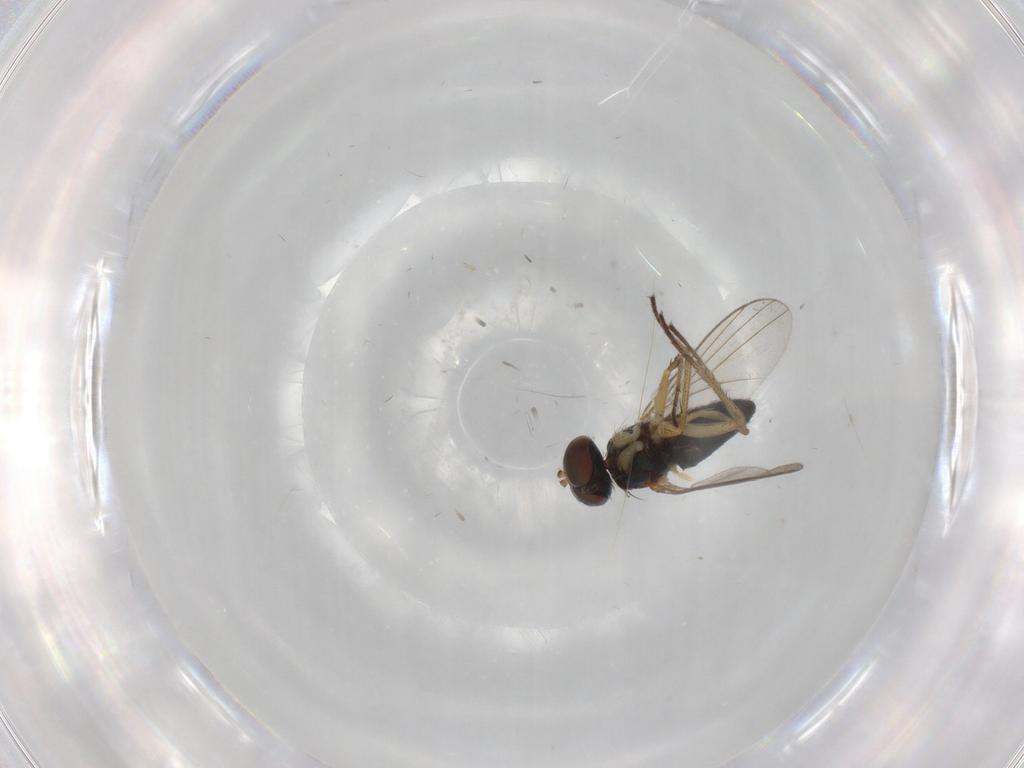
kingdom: Animalia
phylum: Arthropoda
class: Insecta
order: Diptera
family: Dolichopodidae
